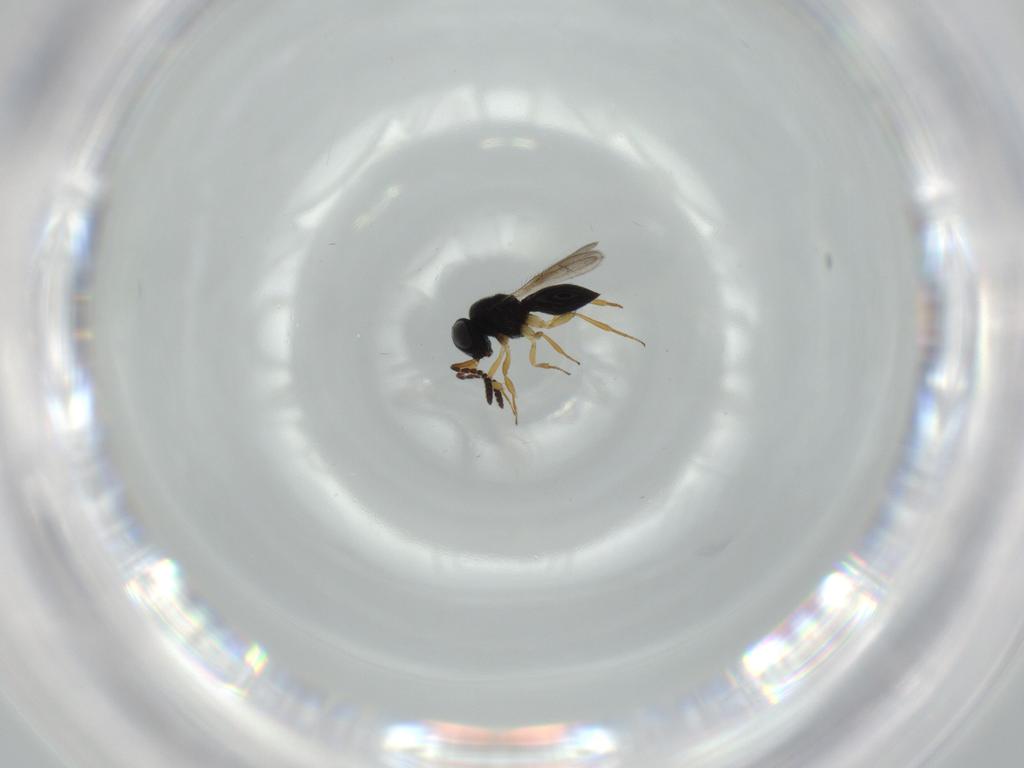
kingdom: Animalia
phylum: Arthropoda
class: Insecta
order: Hymenoptera
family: Scelionidae
